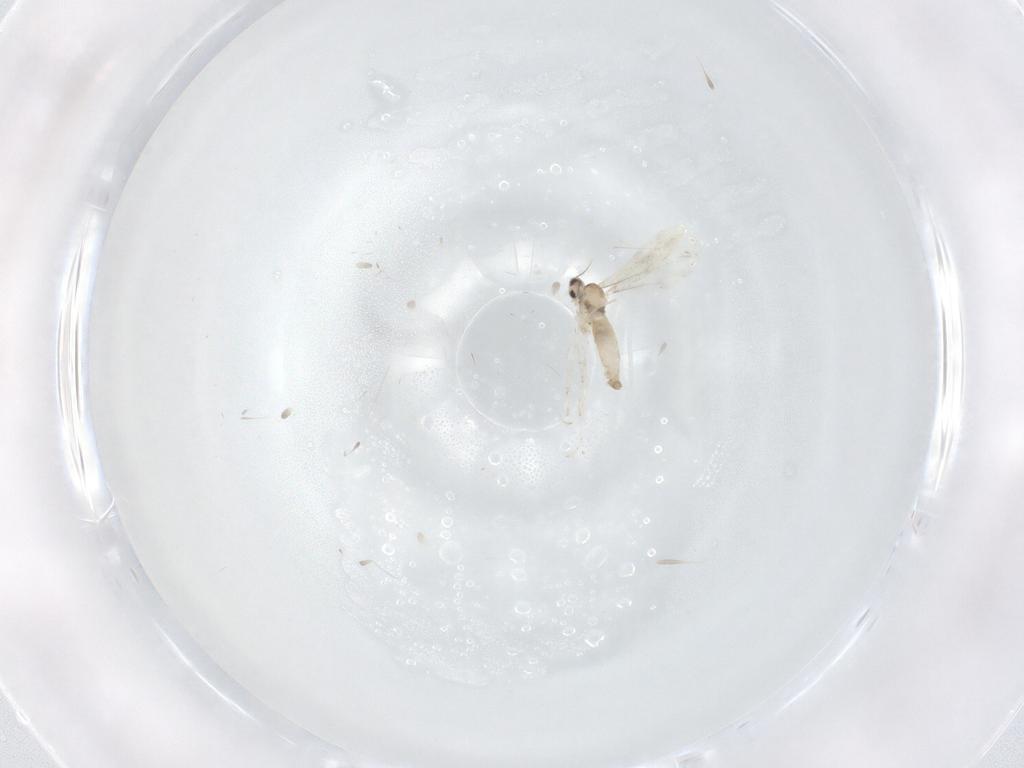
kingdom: Animalia
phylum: Arthropoda
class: Insecta
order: Diptera
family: Cecidomyiidae
